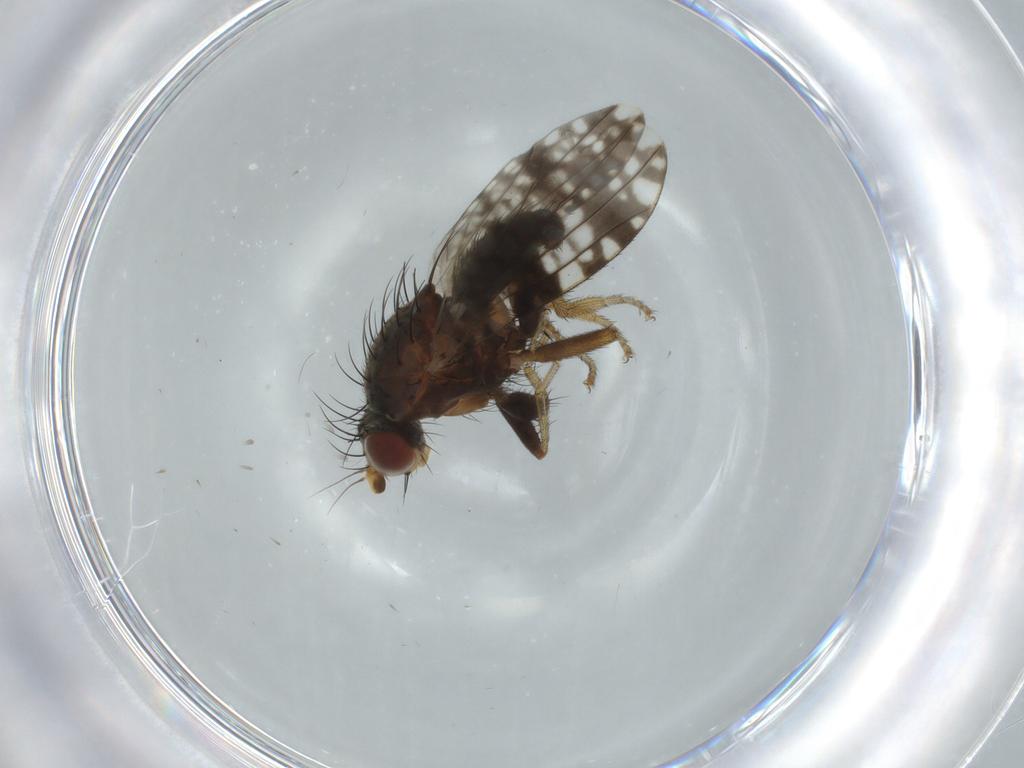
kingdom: Animalia
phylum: Arthropoda
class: Insecta
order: Diptera
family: Tephritidae
